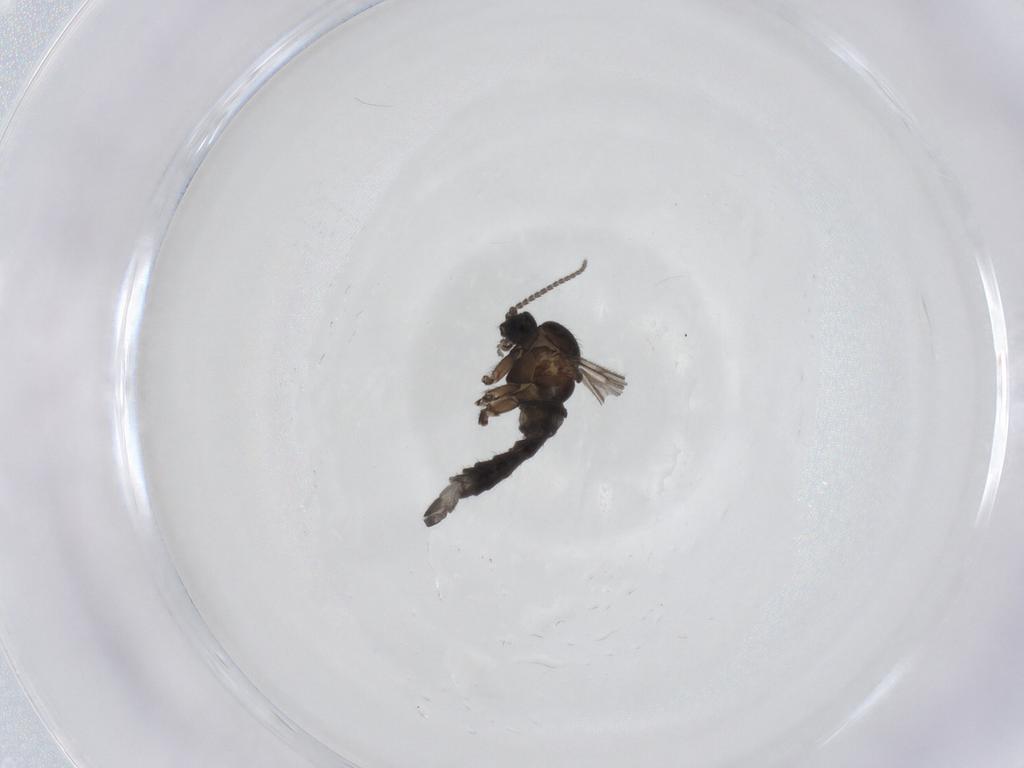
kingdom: Animalia
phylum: Arthropoda
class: Insecta
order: Diptera
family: Sciaridae
